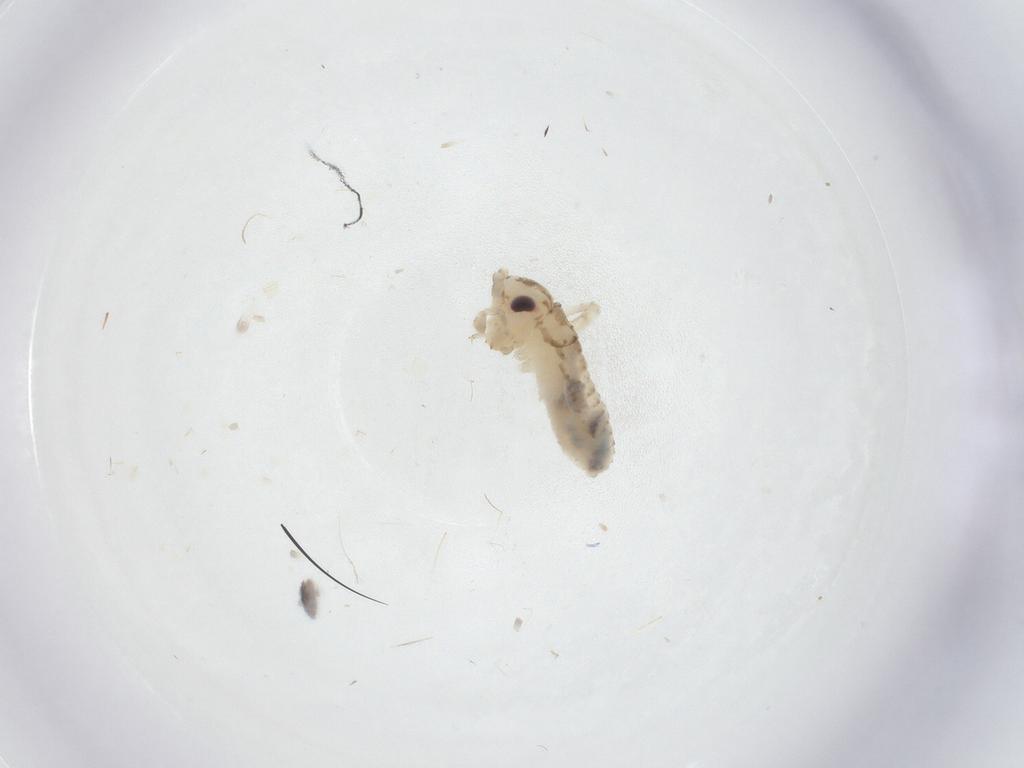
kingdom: Animalia
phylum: Arthropoda
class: Insecta
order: Orthoptera
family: Trigonidiidae
